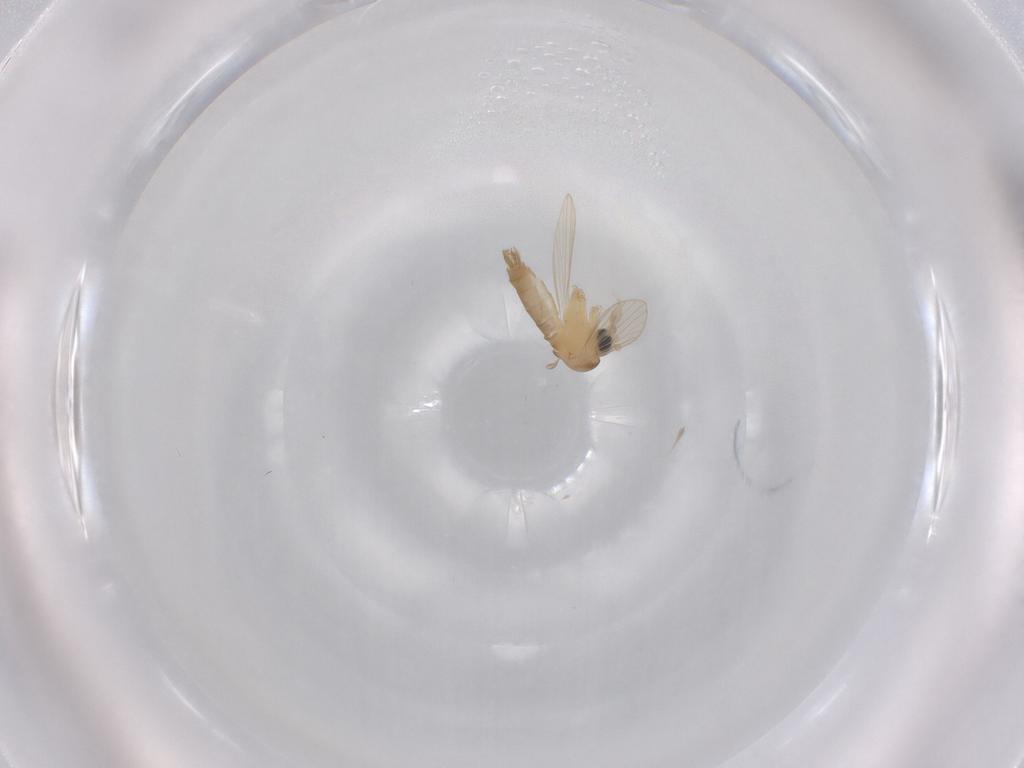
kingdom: Animalia
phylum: Arthropoda
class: Insecta
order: Diptera
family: Psychodidae
